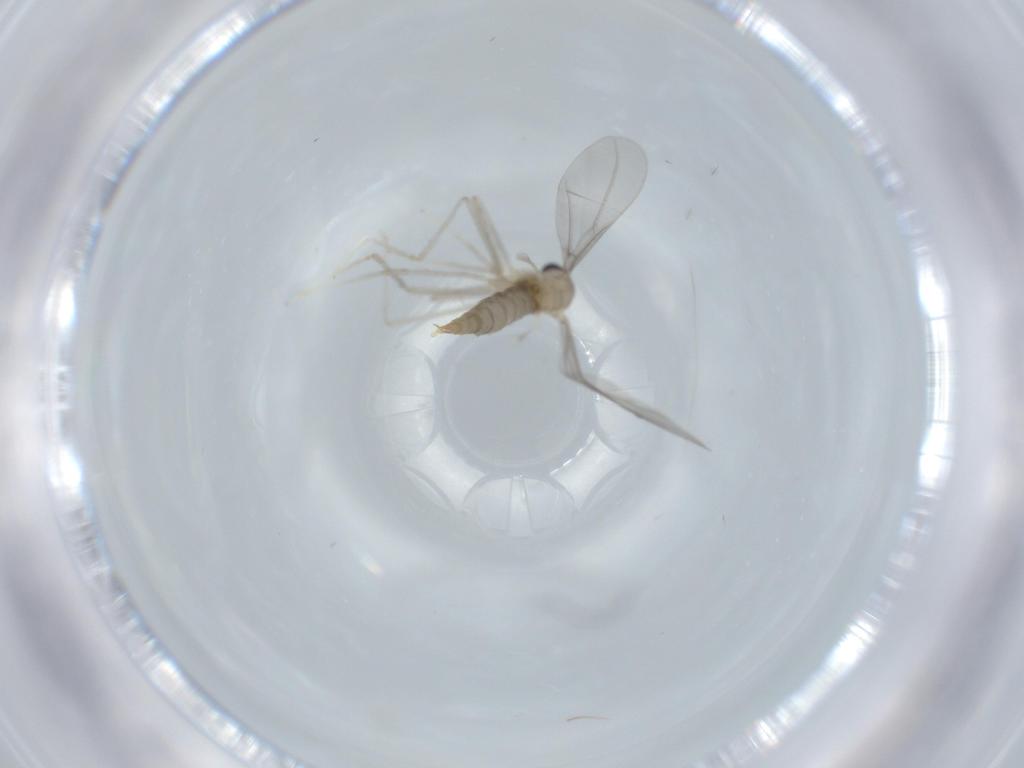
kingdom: Animalia
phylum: Arthropoda
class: Insecta
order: Diptera
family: Cecidomyiidae
